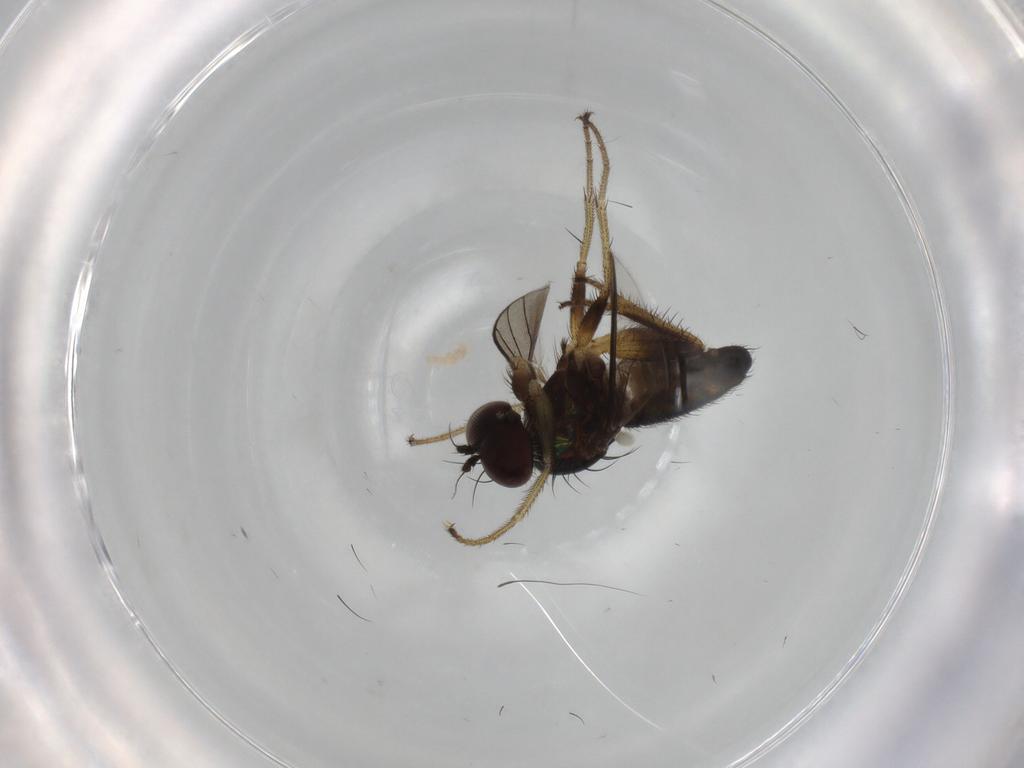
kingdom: Animalia
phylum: Arthropoda
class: Insecta
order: Diptera
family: Dolichopodidae
